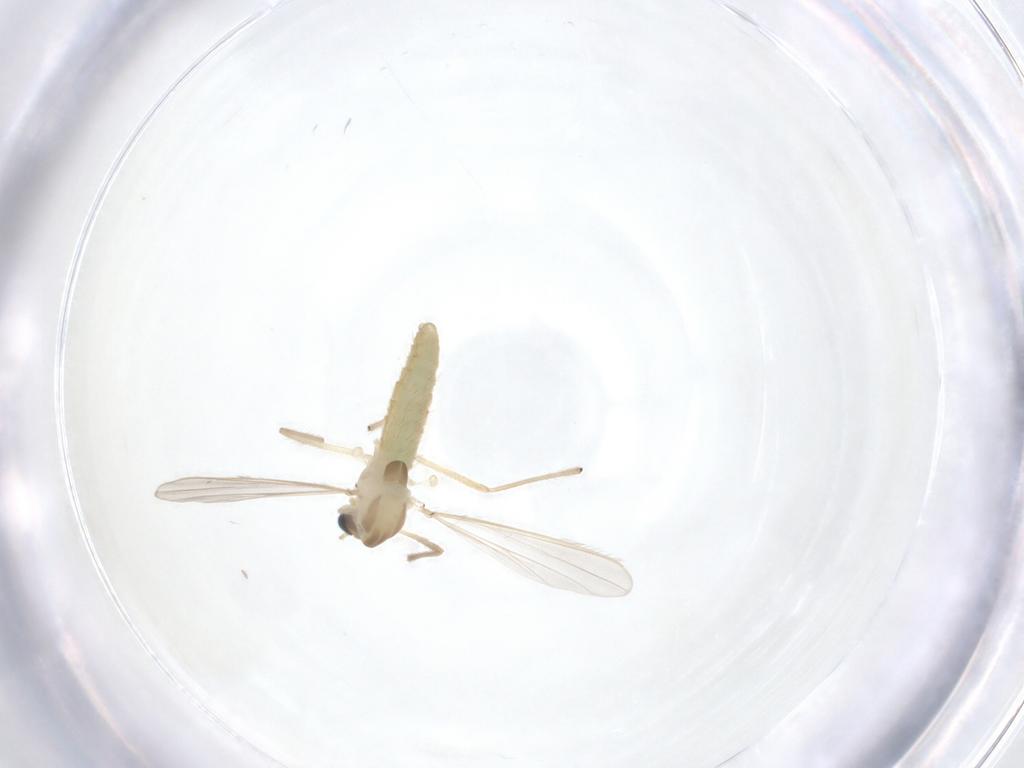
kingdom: Animalia
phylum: Arthropoda
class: Insecta
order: Diptera
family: Chironomidae
